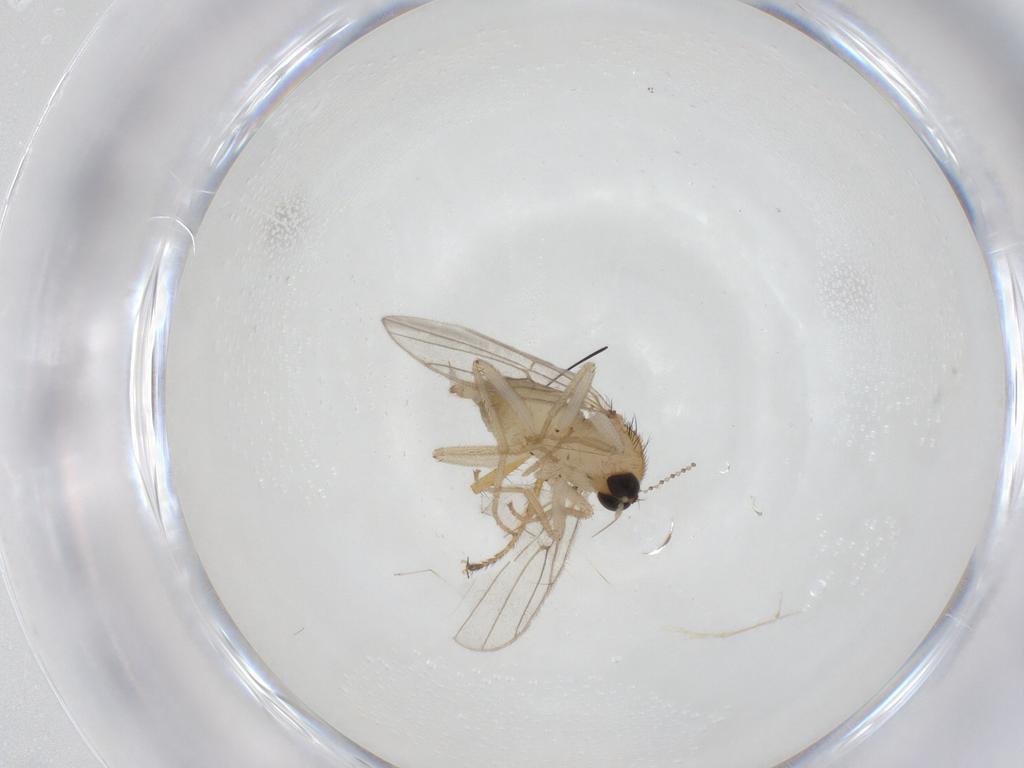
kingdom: Animalia
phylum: Arthropoda
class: Insecta
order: Diptera
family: Hybotidae
